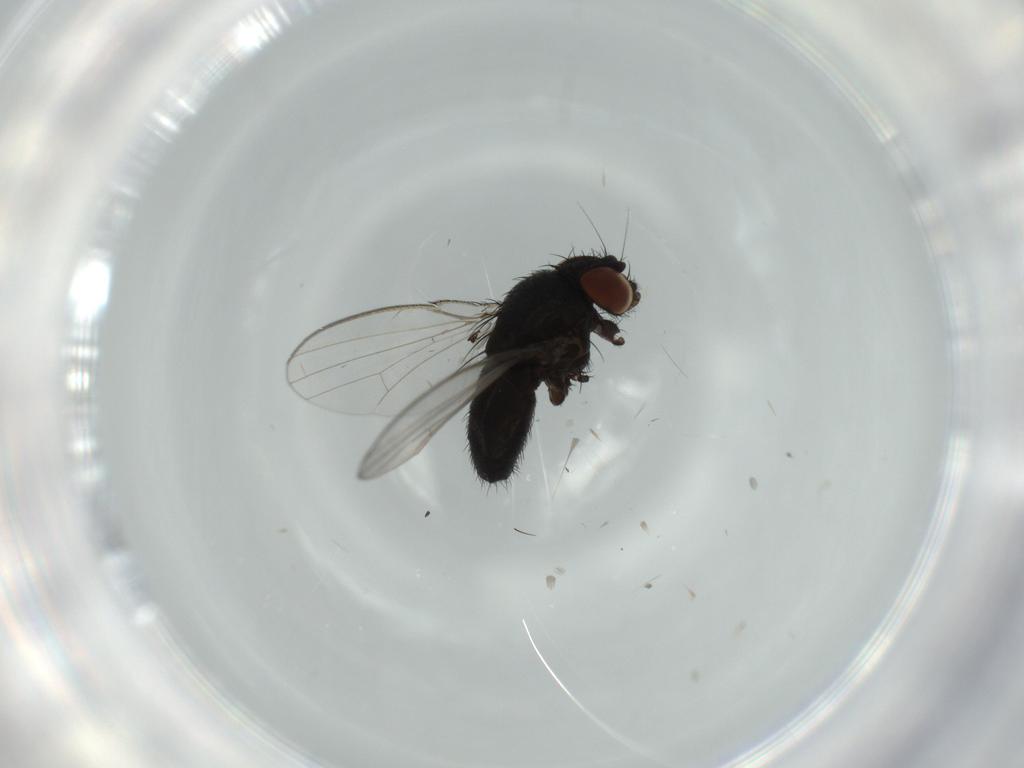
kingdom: Animalia
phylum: Arthropoda
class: Insecta
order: Diptera
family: Milichiidae
